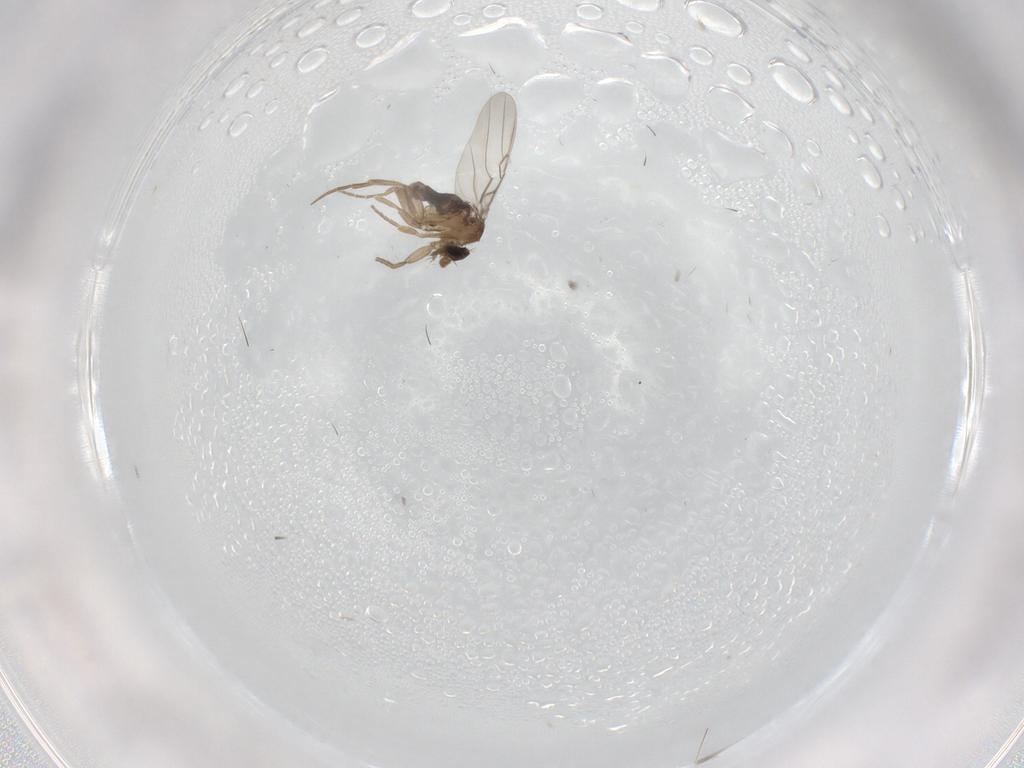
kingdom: Animalia
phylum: Arthropoda
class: Insecta
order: Diptera
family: Phoridae
